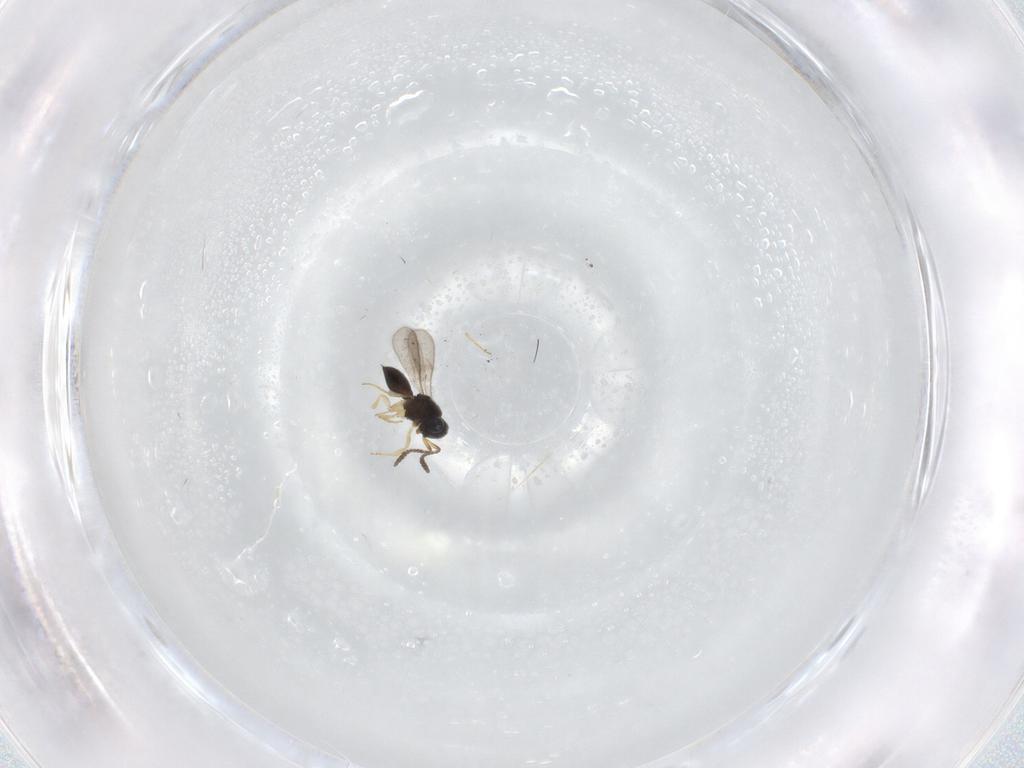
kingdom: Animalia
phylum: Arthropoda
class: Insecta
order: Hymenoptera
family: Scelionidae
